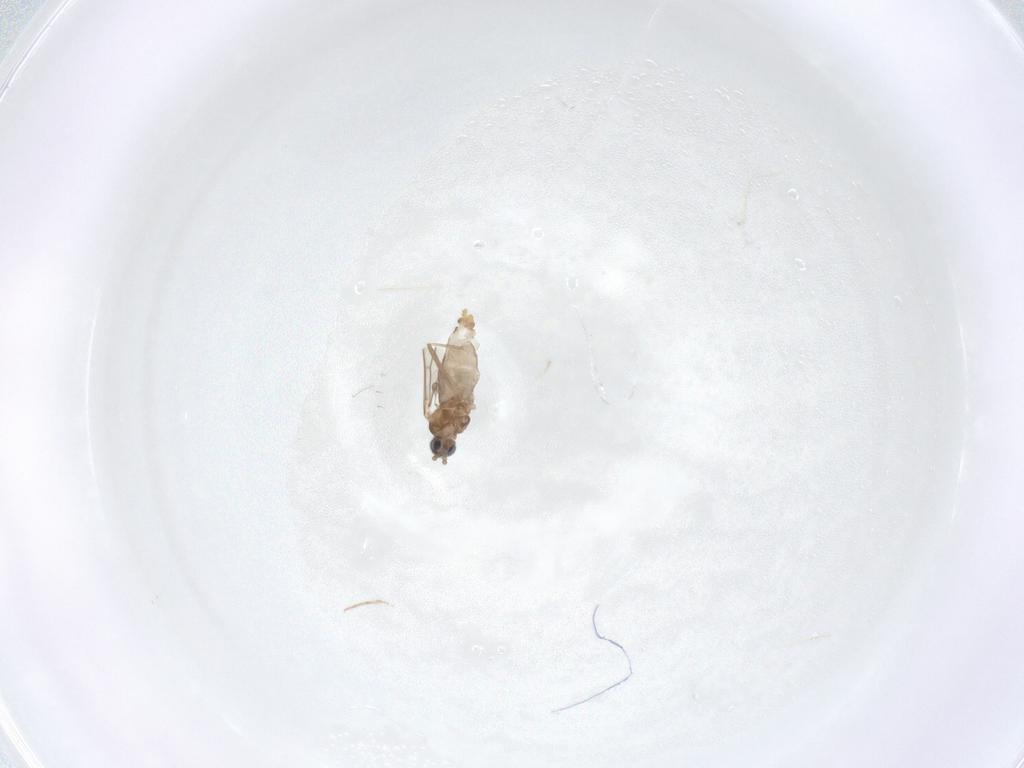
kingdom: Animalia
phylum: Arthropoda
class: Insecta
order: Diptera
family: Cecidomyiidae
